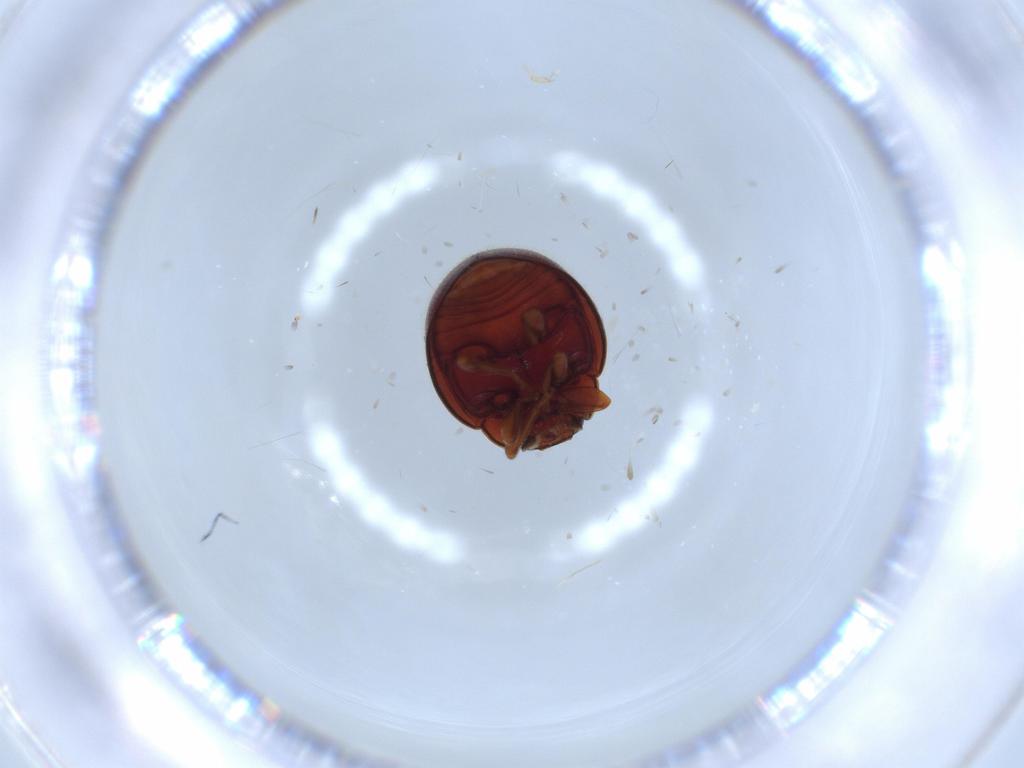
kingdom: Animalia
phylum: Arthropoda
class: Insecta
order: Coleoptera
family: Coccinellidae
